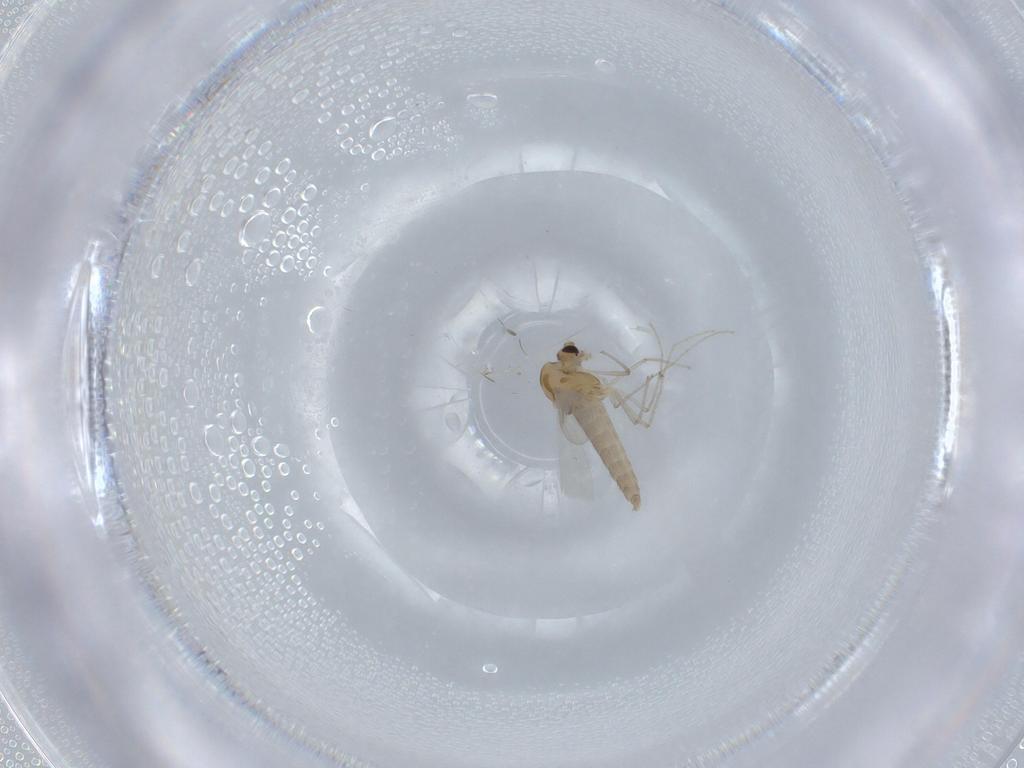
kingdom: Animalia
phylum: Arthropoda
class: Insecta
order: Diptera
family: Chironomidae
